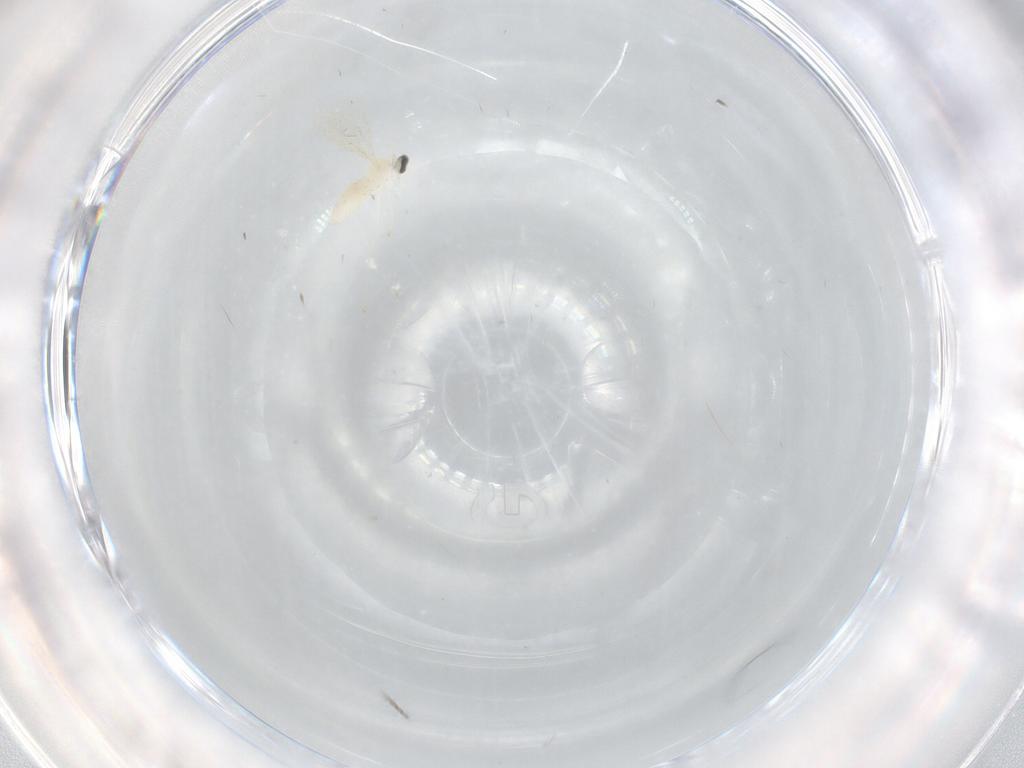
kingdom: Animalia
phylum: Arthropoda
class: Insecta
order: Diptera
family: Cecidomyiidae
